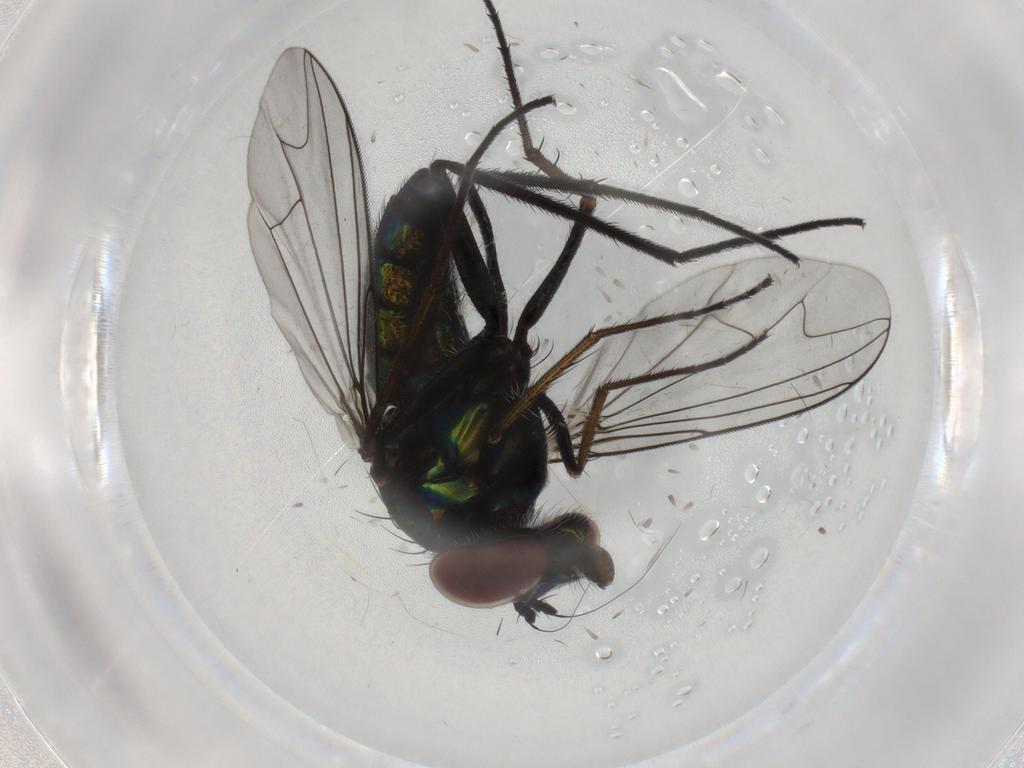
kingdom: Animalia
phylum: Arthropoda
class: Insecta
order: Diptera
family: Dolichopodidae
